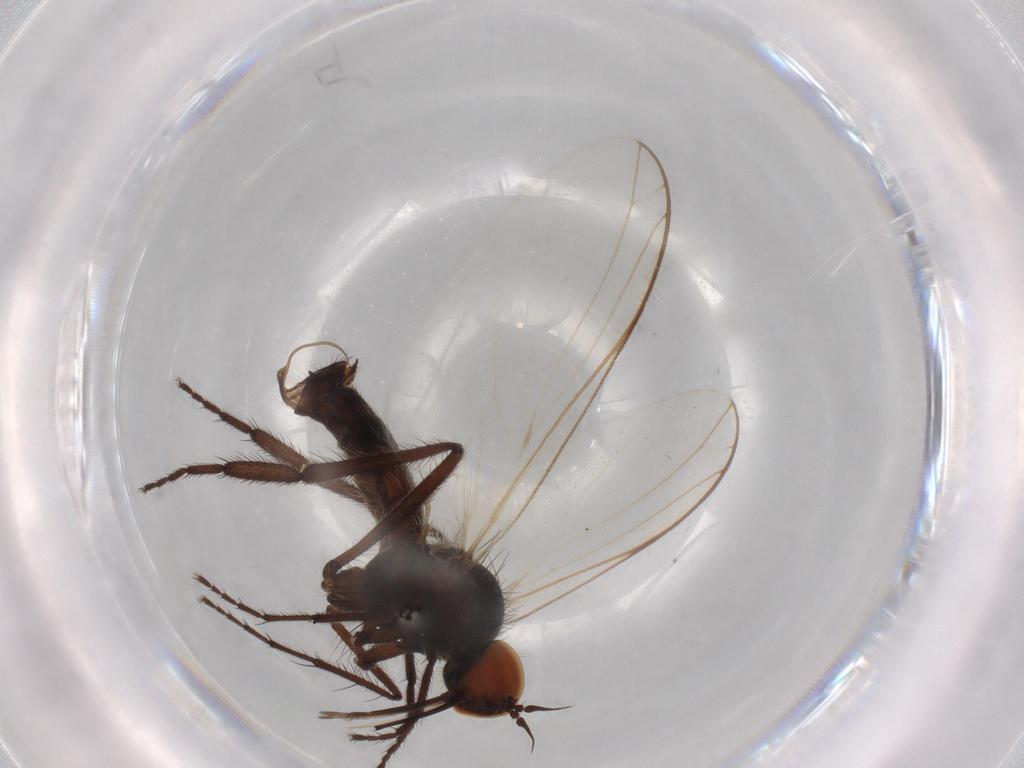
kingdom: Animalia
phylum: Arthropoda
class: Insecta
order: Diptera
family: Empididae
